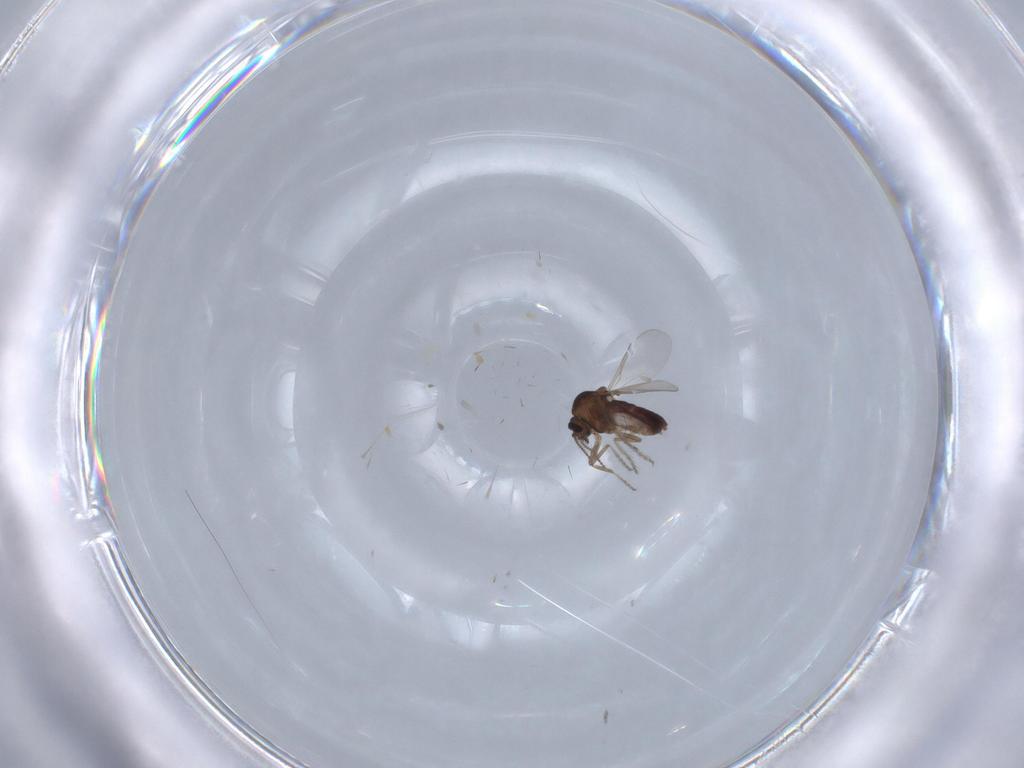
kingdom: Animalia
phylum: Arthropoda
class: Insecta
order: Diptera
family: Ceratopogonidae
